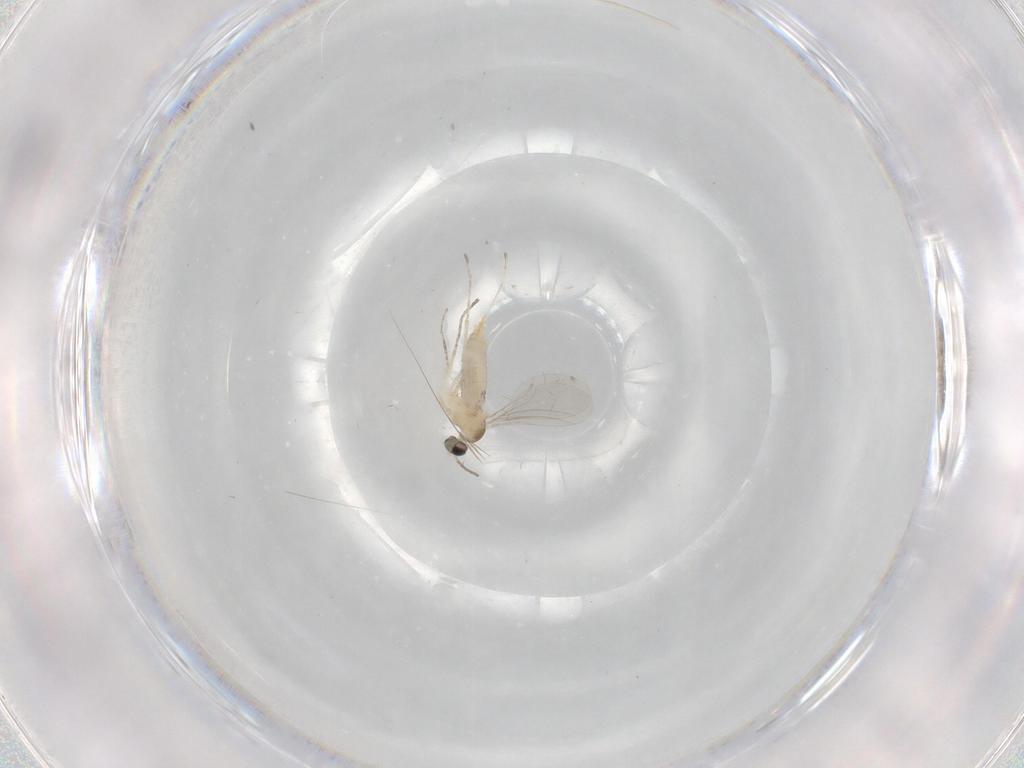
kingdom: Animalia
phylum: Arthropoda
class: Insecta
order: Diptera
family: Cecidomyiidae
